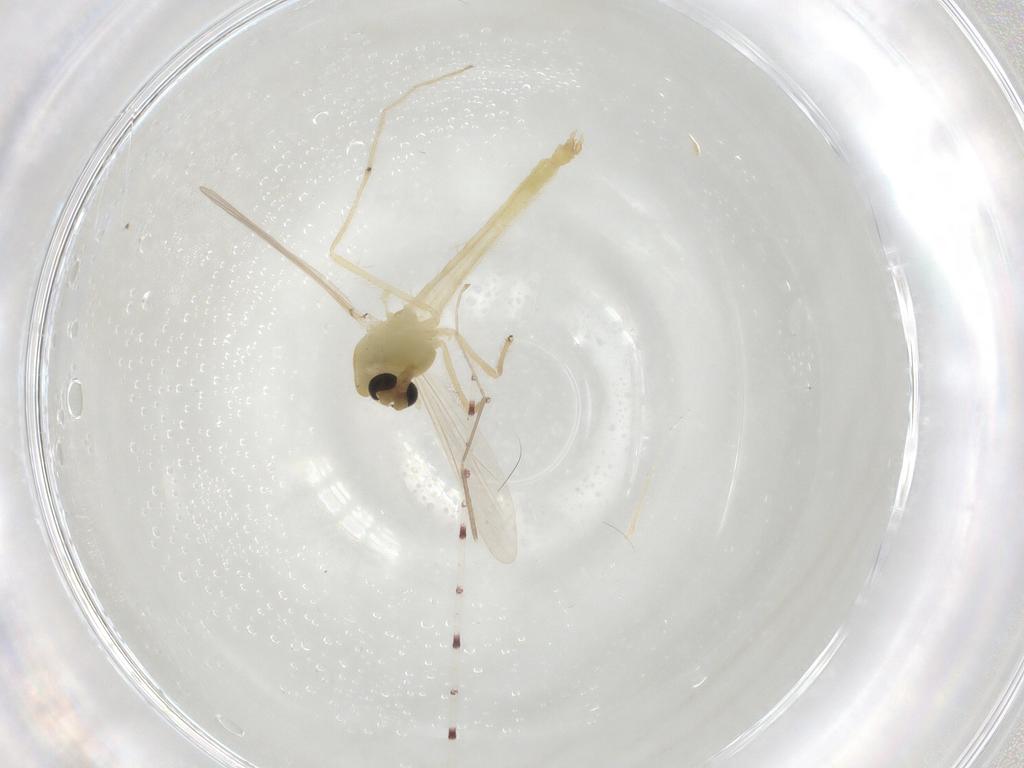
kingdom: Animalia
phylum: Arthropoda
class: Insecta
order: Diptera
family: Chironomidae
